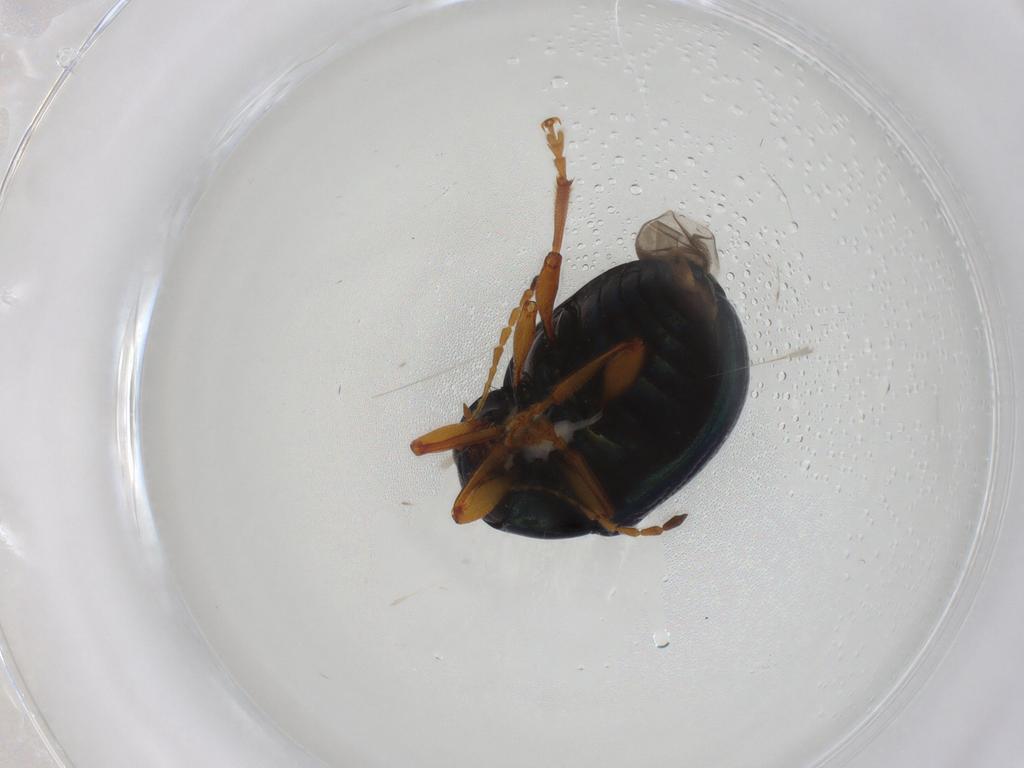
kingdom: Animalia
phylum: Arthropoda
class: Insecta
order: Coleoptera
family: Chrysomelidae
